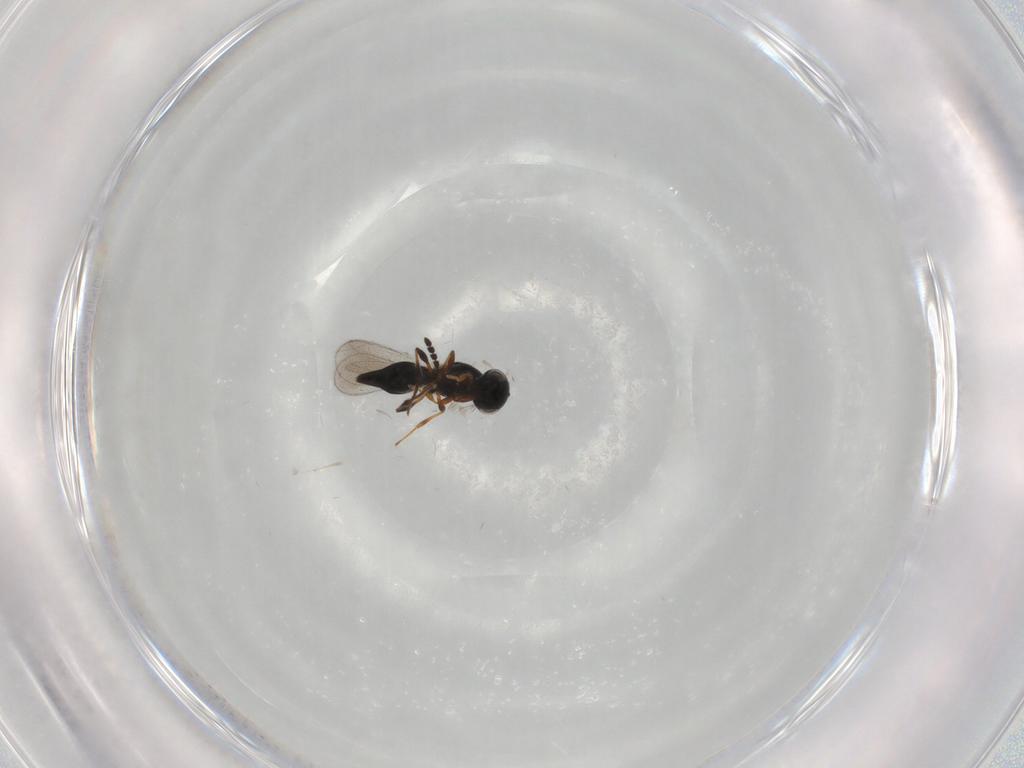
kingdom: Animalia
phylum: Arthropoda
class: Insecta
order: Hymenoptera
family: Platygastridae
